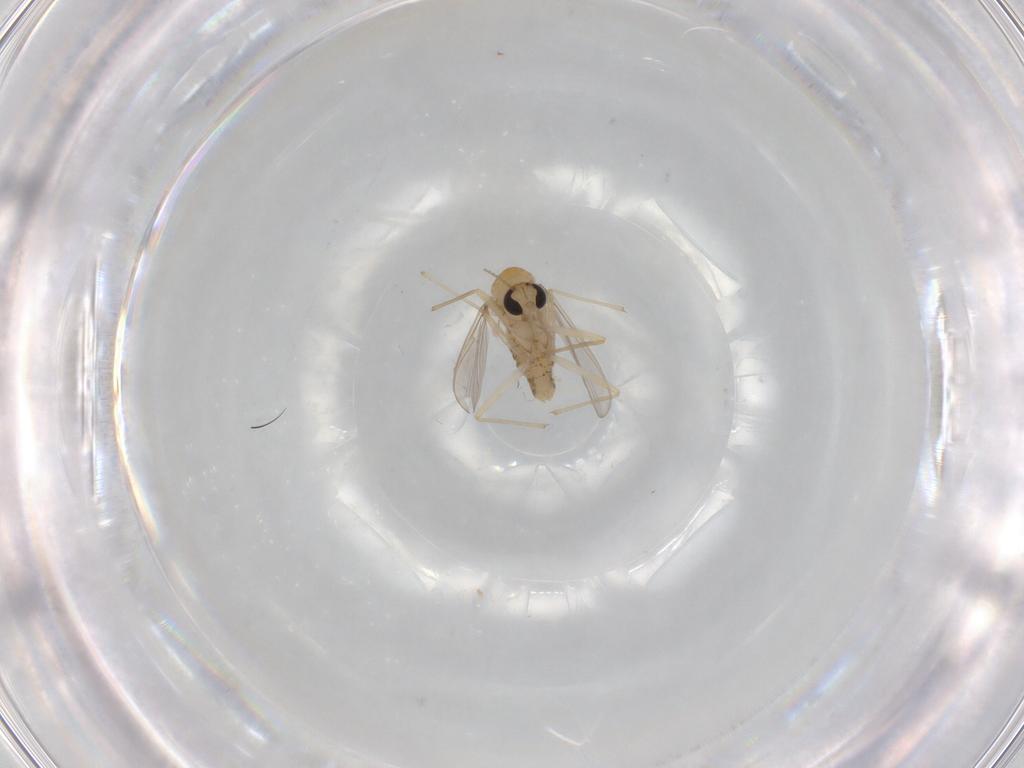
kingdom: Animalia
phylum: Arthropoda
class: Insecta
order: Diptera
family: Chironomidae
